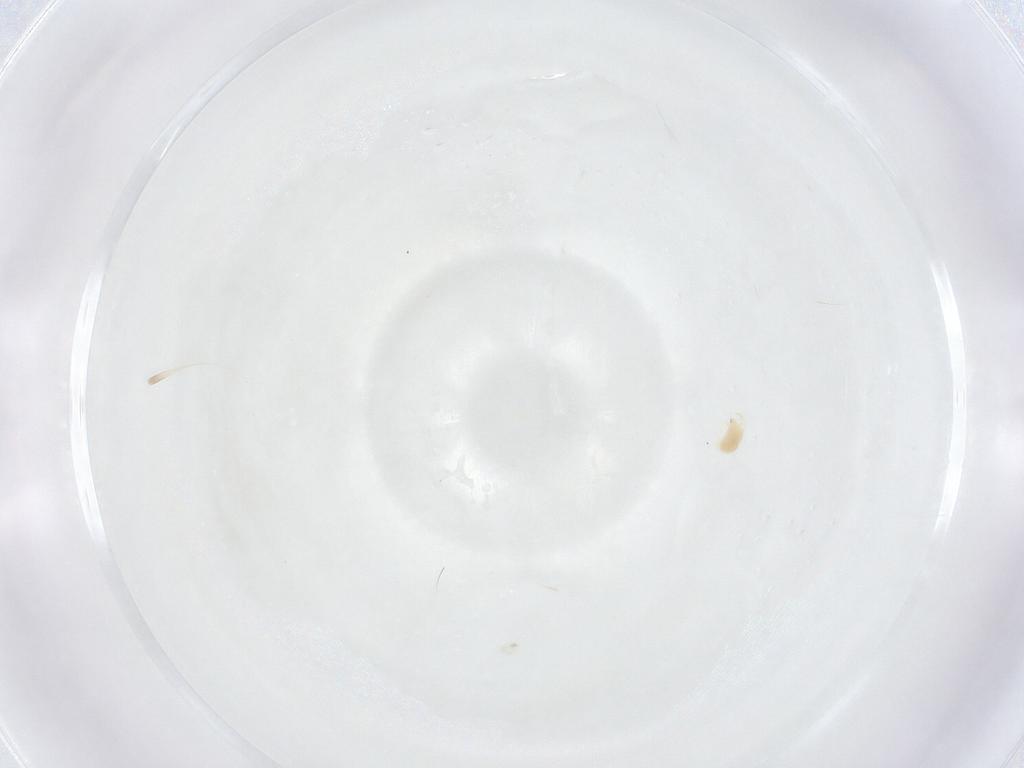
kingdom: Animalia
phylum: Arthropoda
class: Arachnida
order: Trombidiformes
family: Tetranychidae
